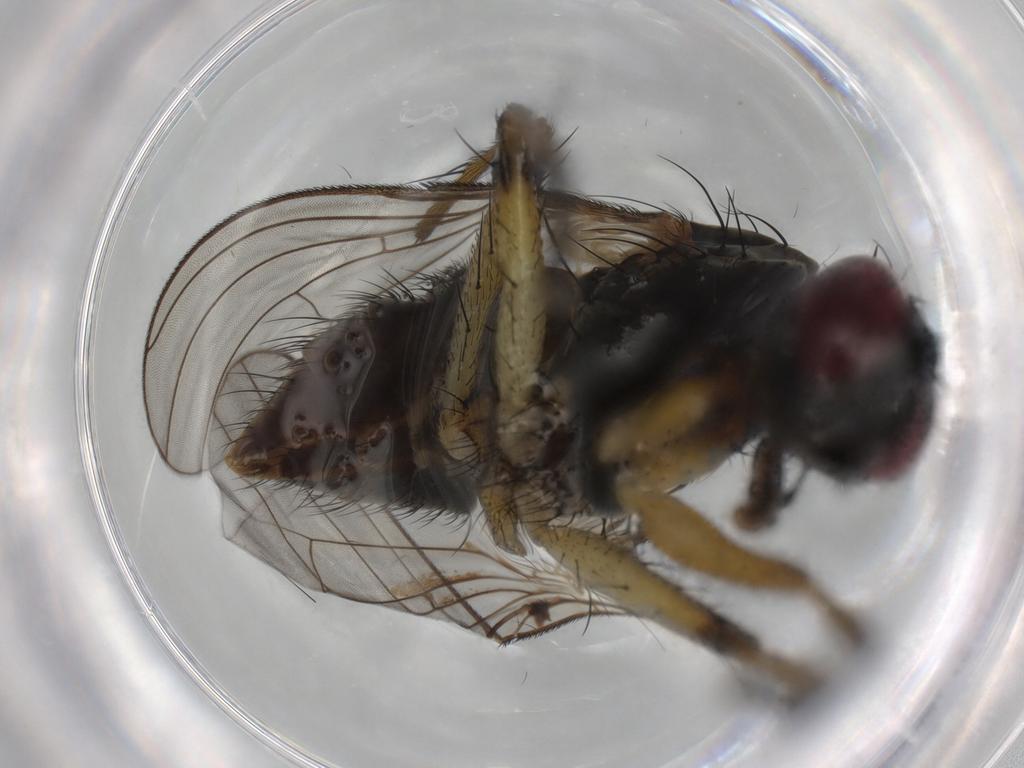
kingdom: Animalia
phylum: Arthropoda
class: Insecta
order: Diptera
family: Muscidae
